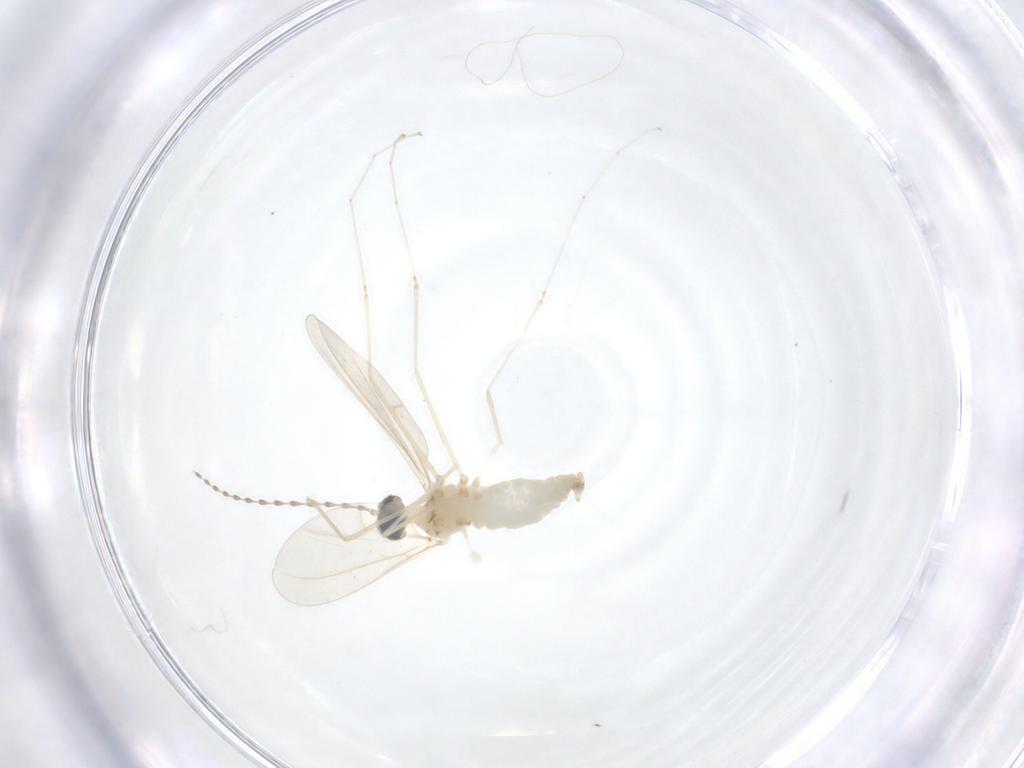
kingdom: Animalia
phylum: Arthropoda
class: Insecta
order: Diptera
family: Cecidomyiidae
